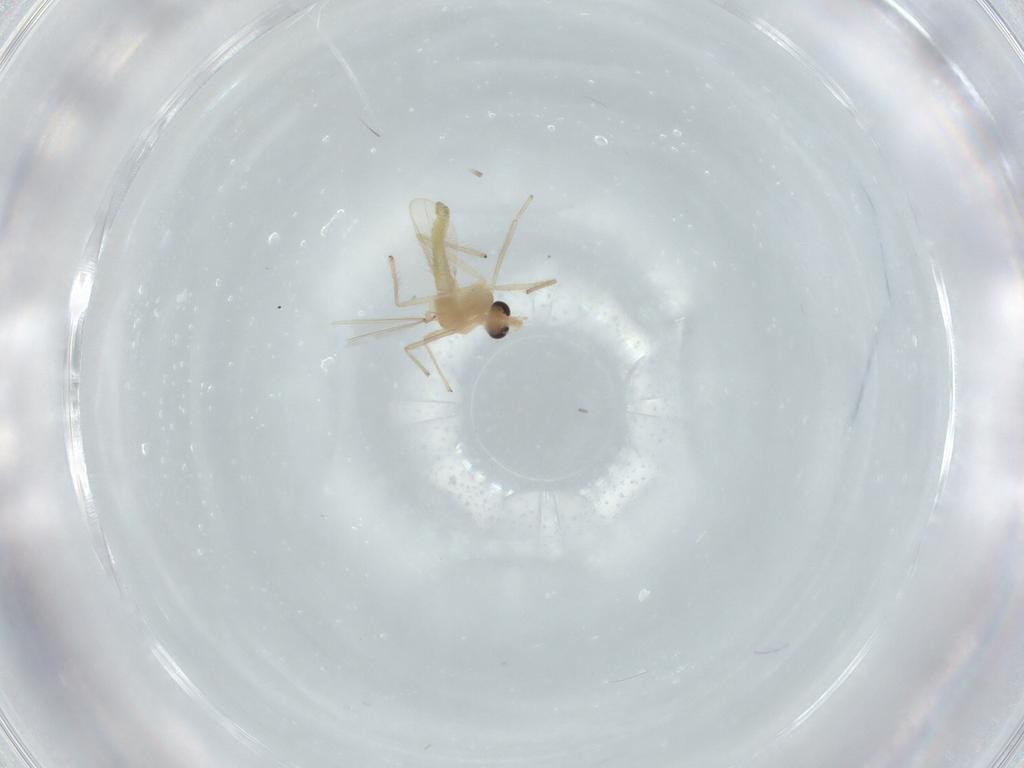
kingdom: Animalia
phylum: Arthropoda
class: Insecta
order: Diptera
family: Chironomidae
